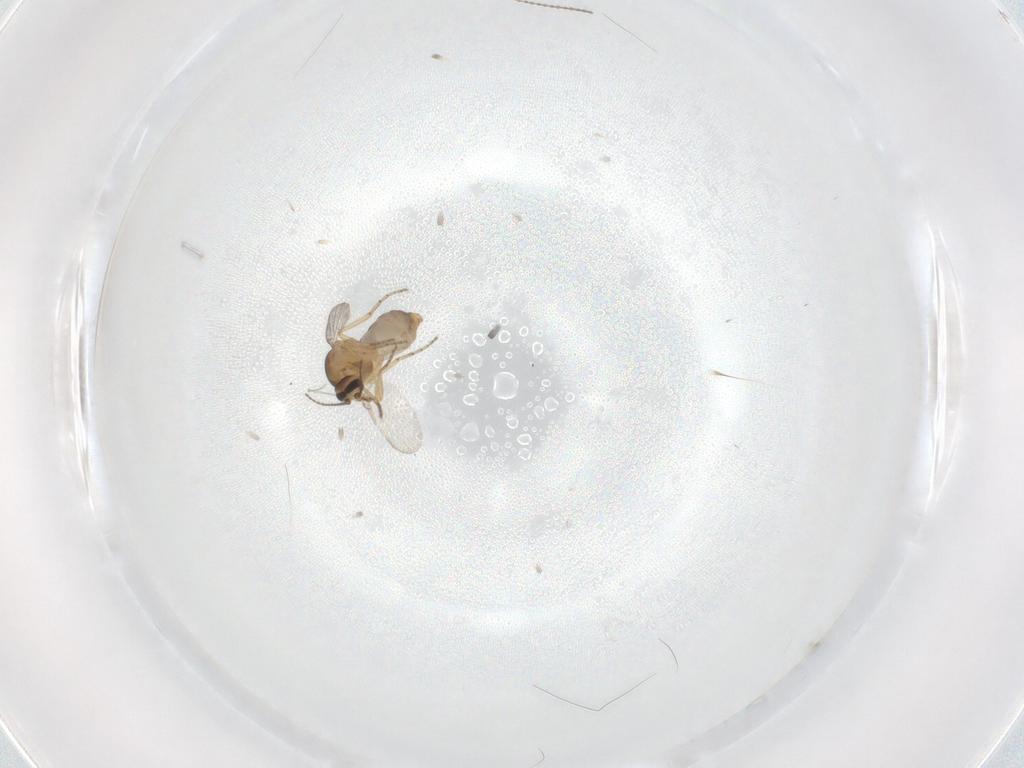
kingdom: Animalia
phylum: Arthropoda
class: Insecta
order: Diptera
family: Ceratopogonidae
